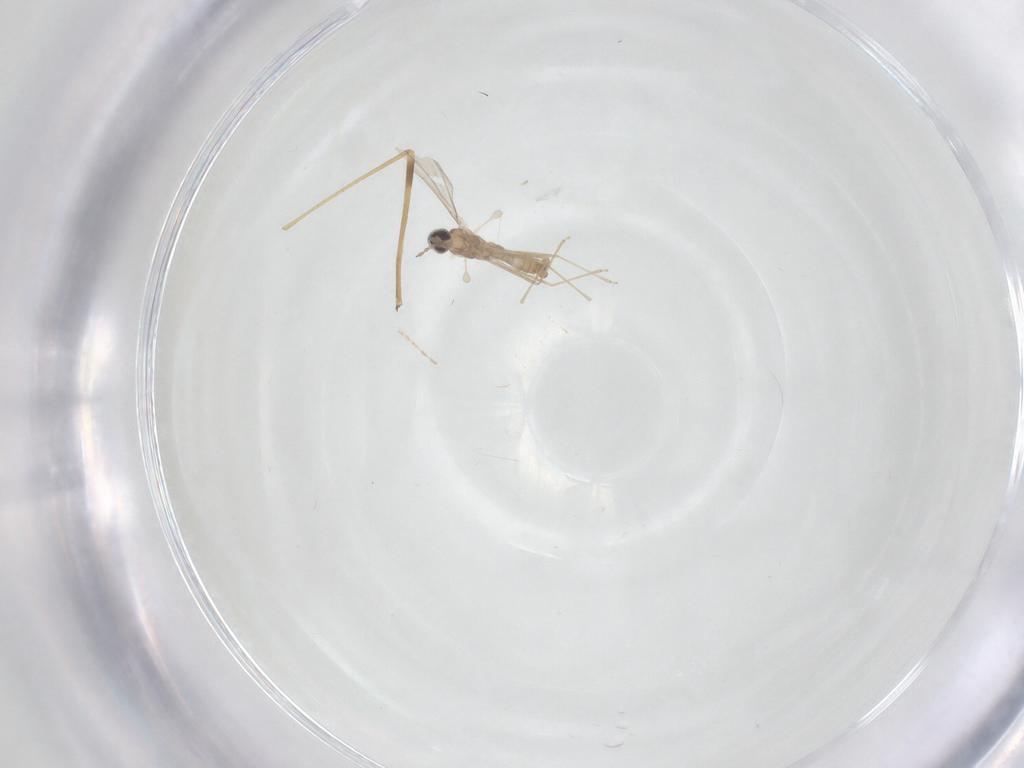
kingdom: Animalia
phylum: Arthropoda
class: Insecta
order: Diptera
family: Cecidomyiidae
